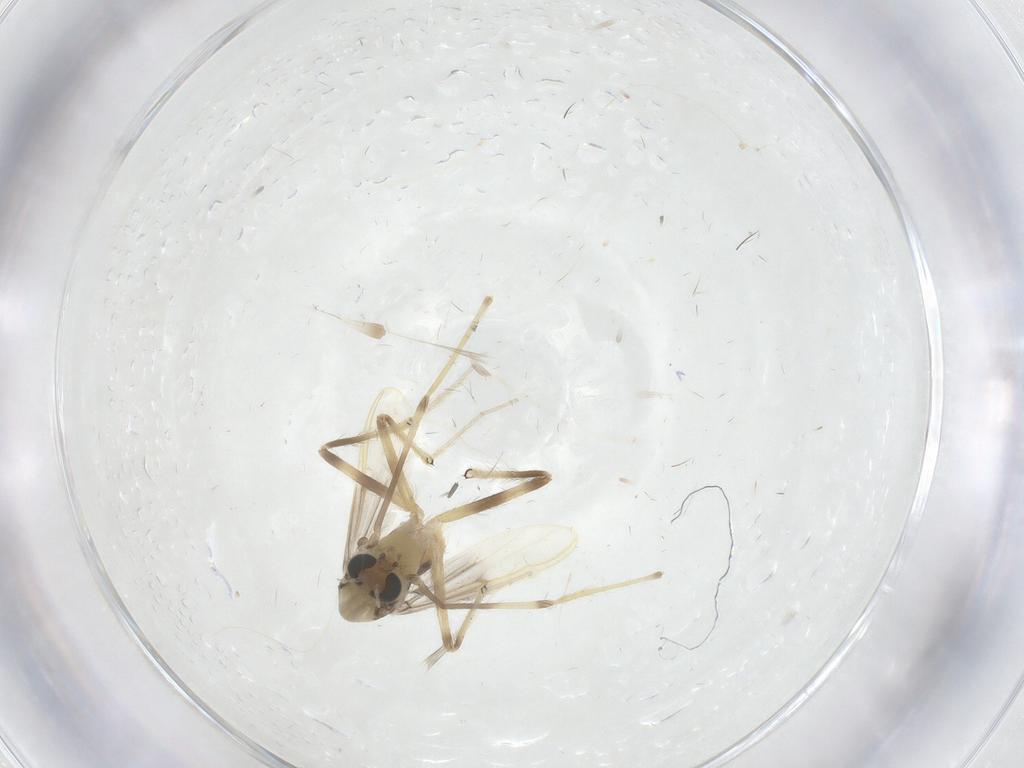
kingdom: Animalia
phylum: Arthropoda
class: Insecta
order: Diptera
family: Chironomidae
